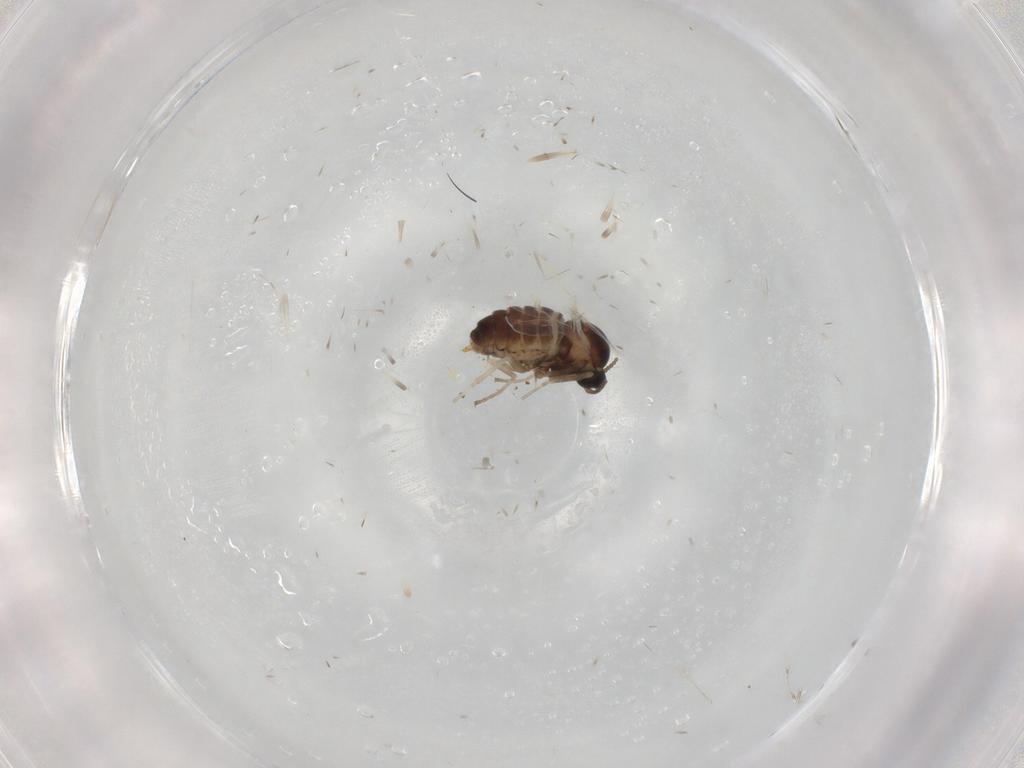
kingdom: Animalia
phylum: Arthropoda
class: Insecta
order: Diptera
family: Cecidomyiidae
